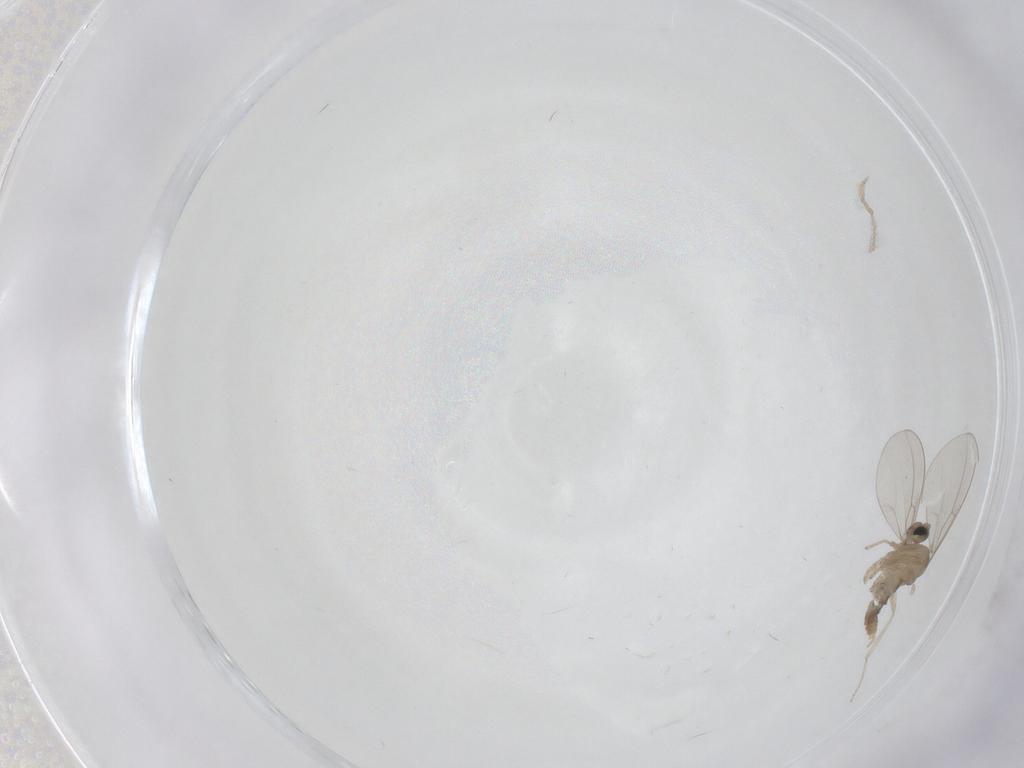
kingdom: Animalia
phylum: Arthropoda
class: Insecta
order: Diptera
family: Cecidomyiidae
